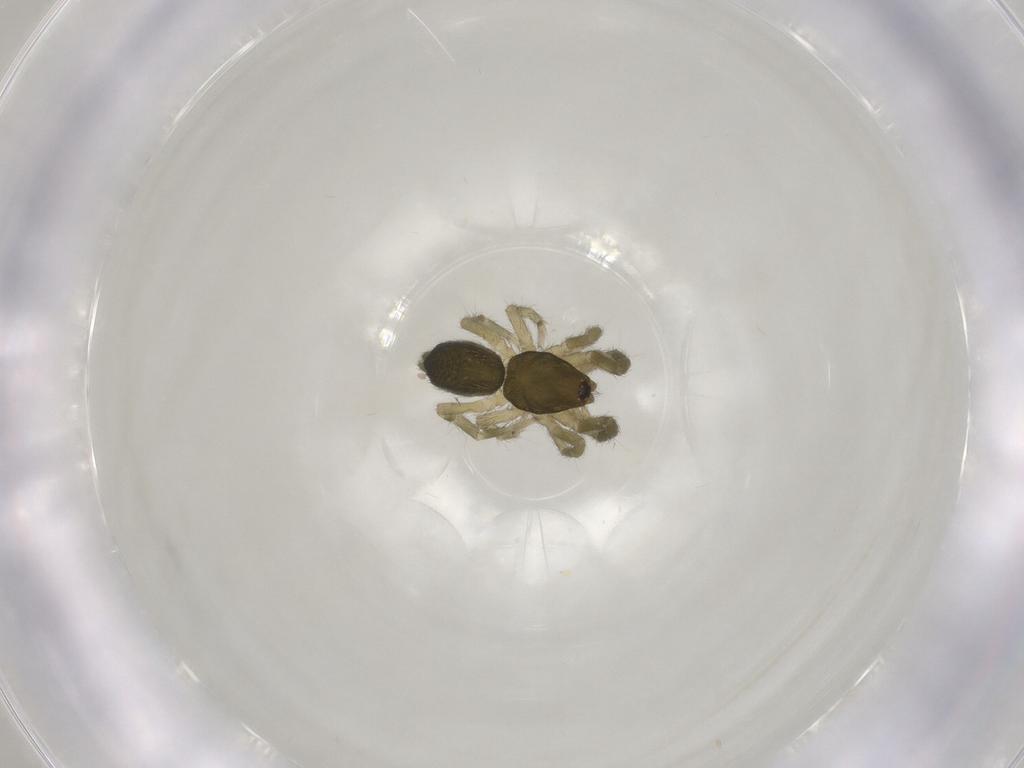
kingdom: Animalia
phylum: Arthropoda
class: Arachnida
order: Araneae
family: Gnaphosidae
